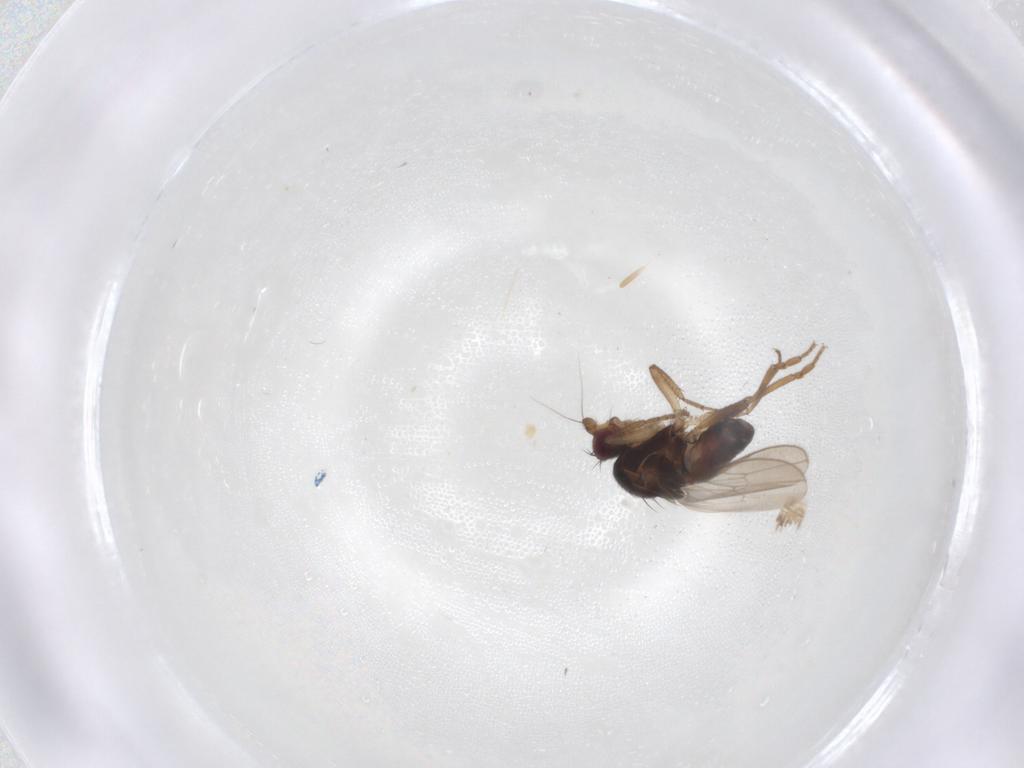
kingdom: Animalia
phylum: Arthropoda
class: Insecta
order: Diptera
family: Sphaeroceridae
